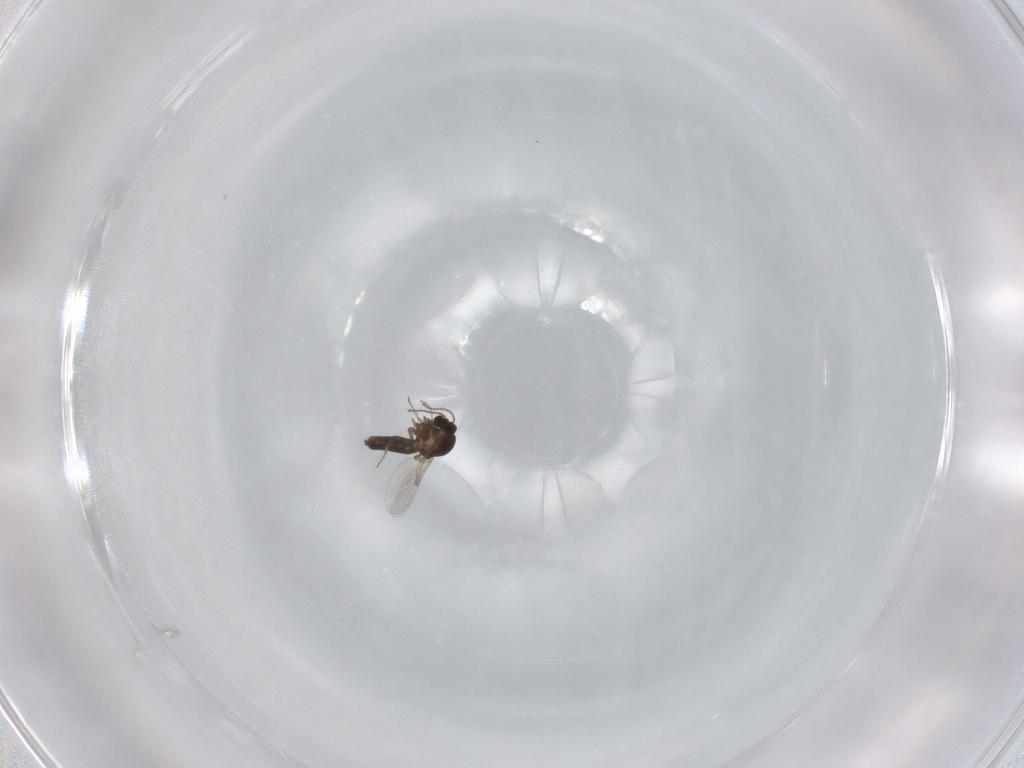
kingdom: Animalia
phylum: Arthropoda
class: Insecta
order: Diptera
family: Ceratopogonidae
